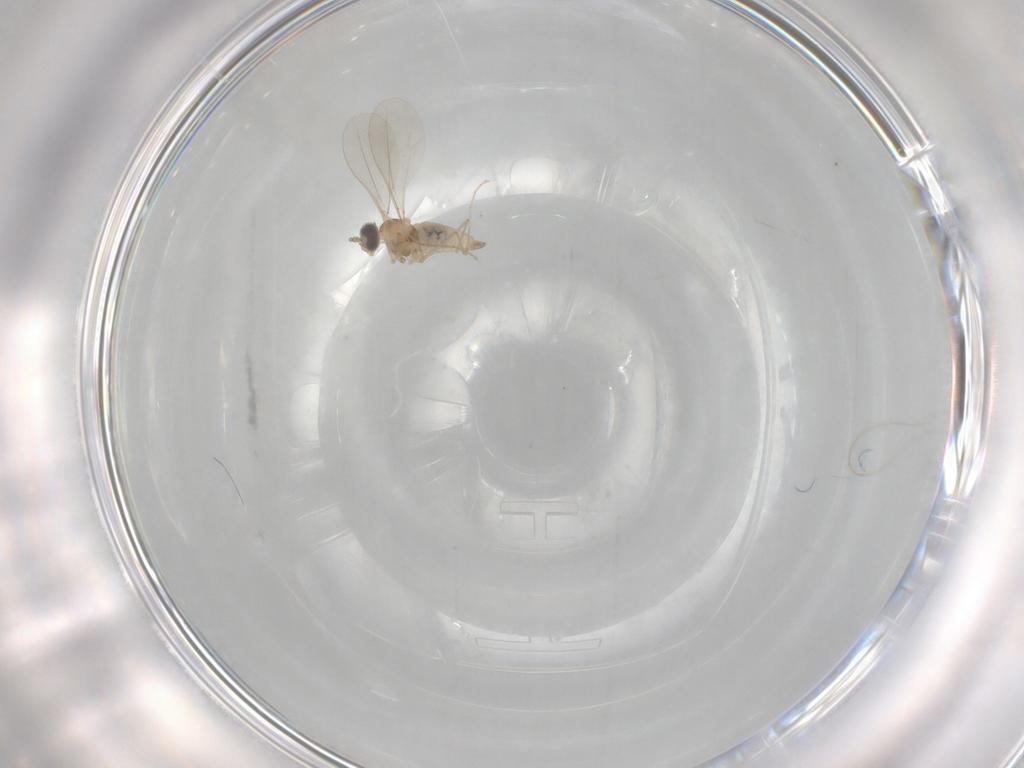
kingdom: Animalia
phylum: Arthropoda
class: Insecta
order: Diptera
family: Cecidomyiidae
